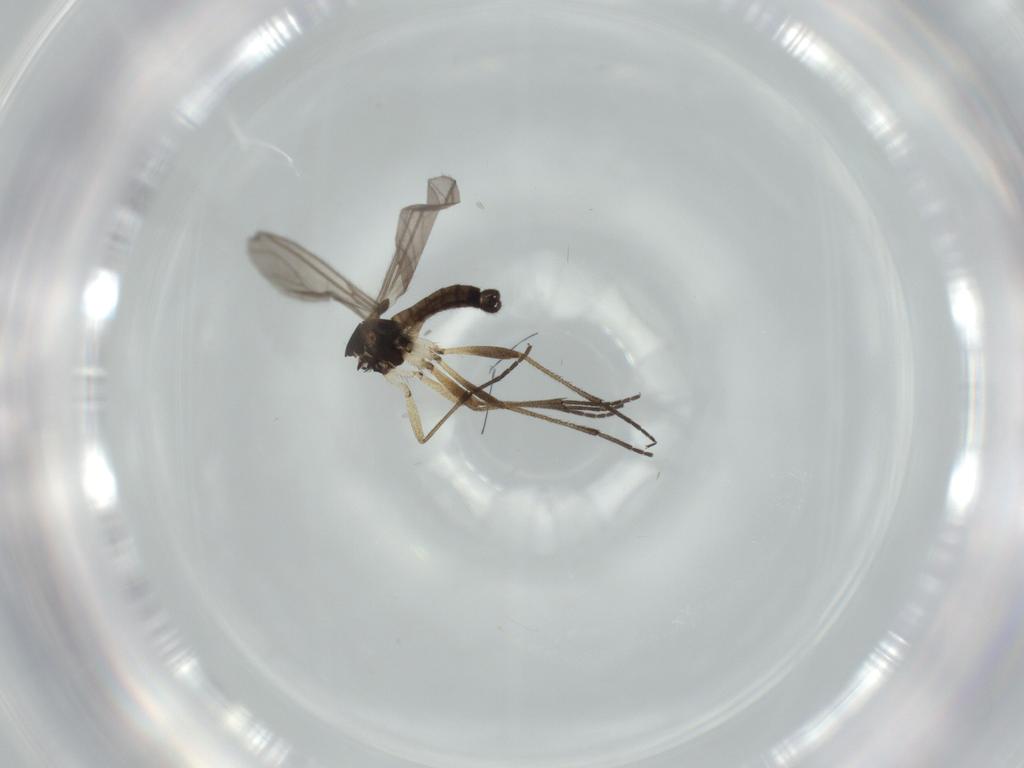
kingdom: Animalia
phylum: Arthropoda
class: Insecta
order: Diptera
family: Sciaridae
